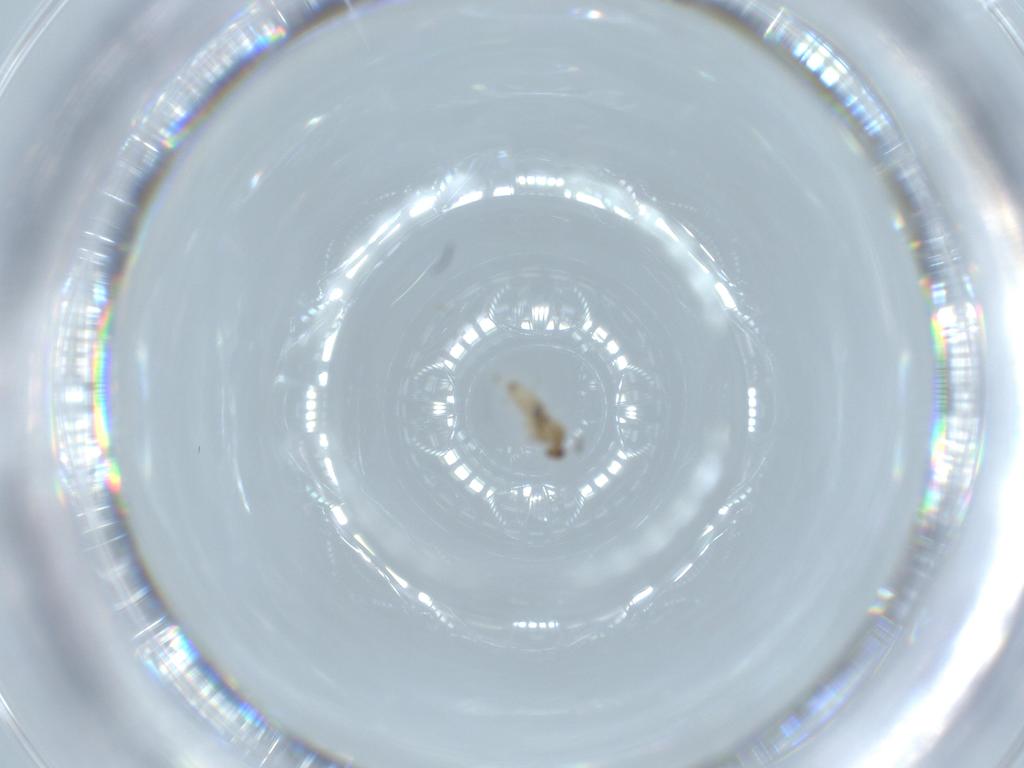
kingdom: Animalia
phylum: Arthropoda
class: Insecta
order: Diptera
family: Cecidomyiidae
